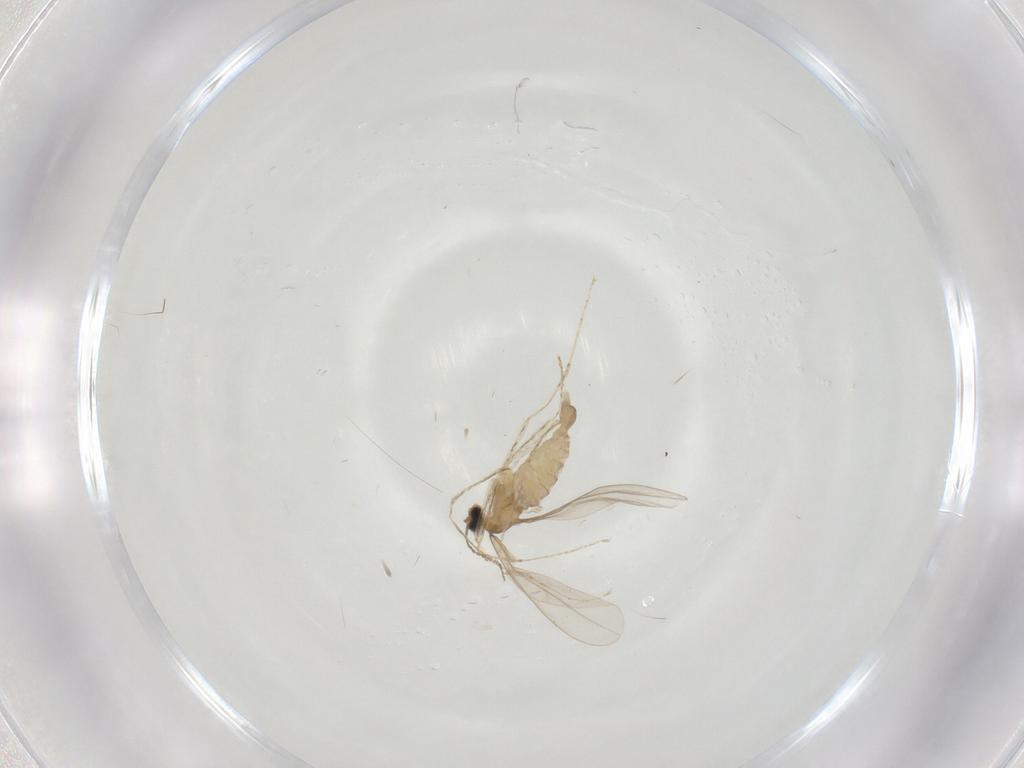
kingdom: Animalia
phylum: Arthropoda
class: Insecta
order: Diptera
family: Cecidomyiidae
